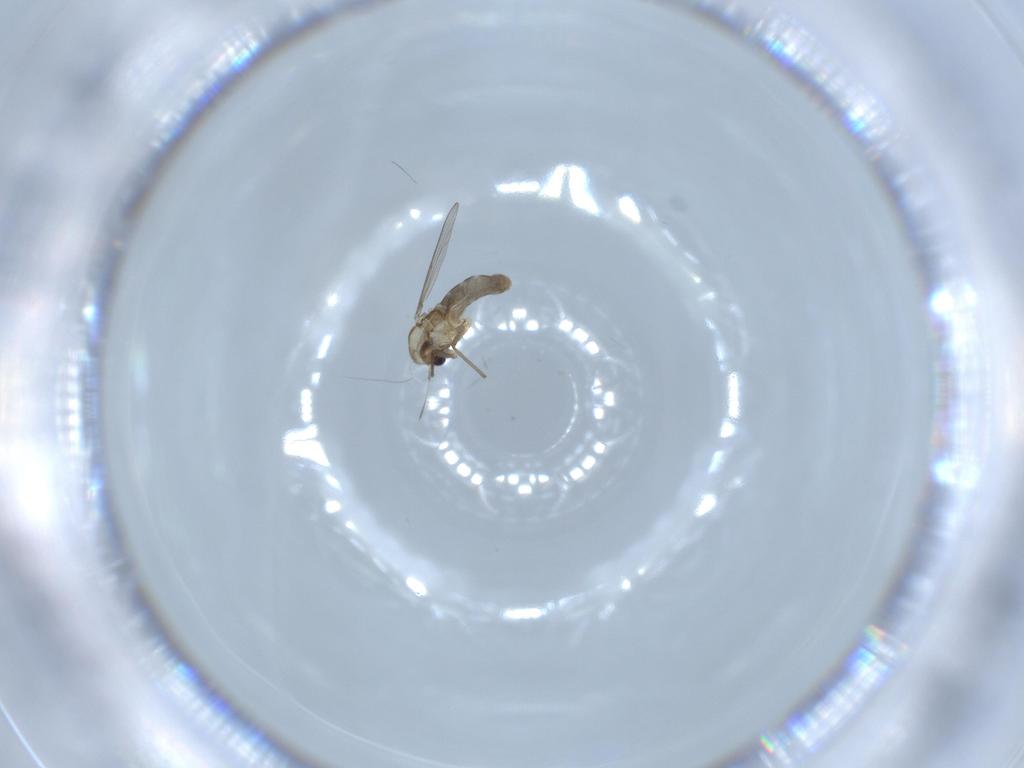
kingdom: Animalia
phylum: Arthropoda
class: Insecta
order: Diptera
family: Chironomidae
